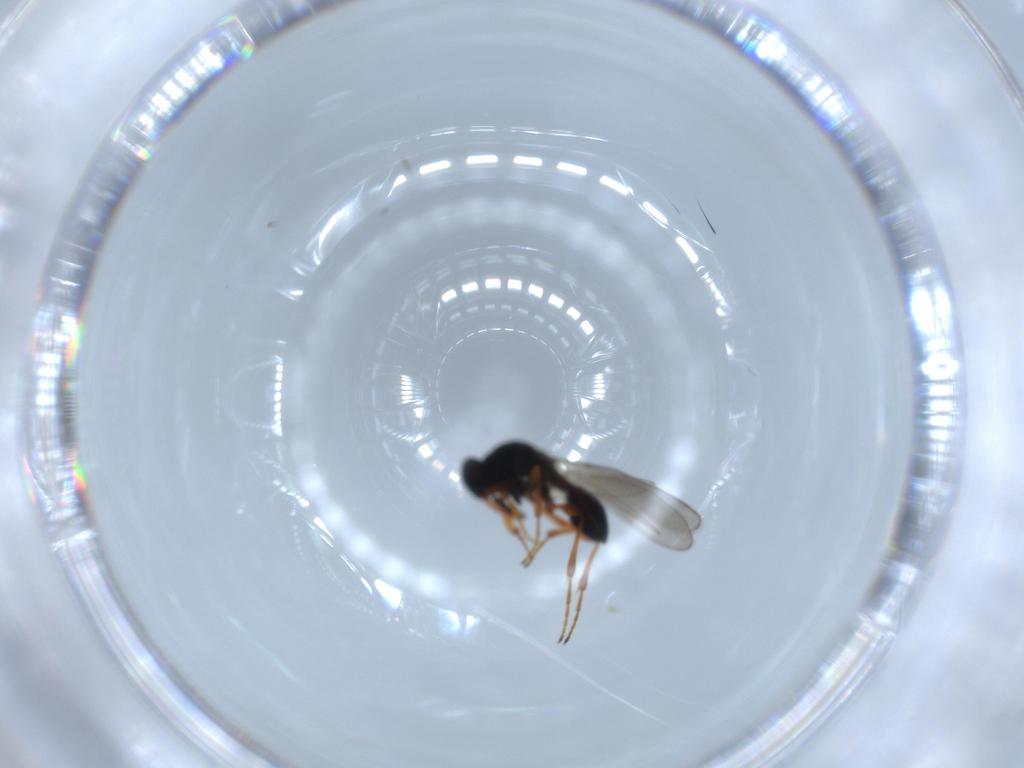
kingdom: Animalia
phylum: Arthropoda
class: Insecta
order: Hymenoptera
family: Platygastridae
